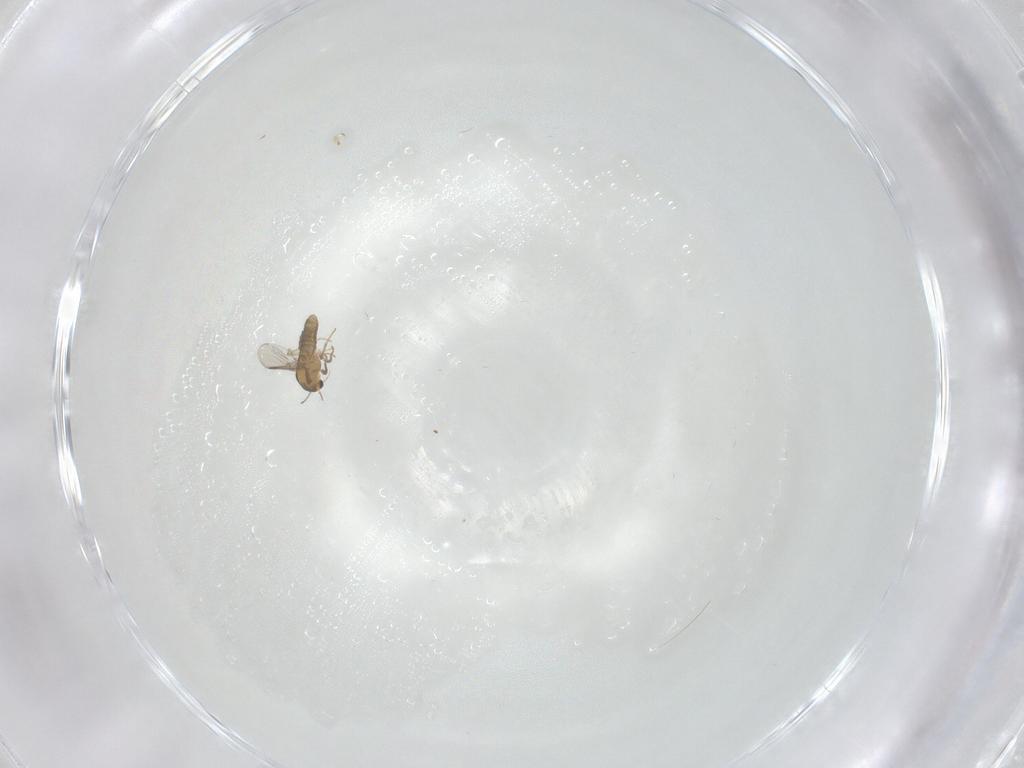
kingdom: Animalia
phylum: Arthropoda
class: Insecta
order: Diptera
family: Chironomidae
